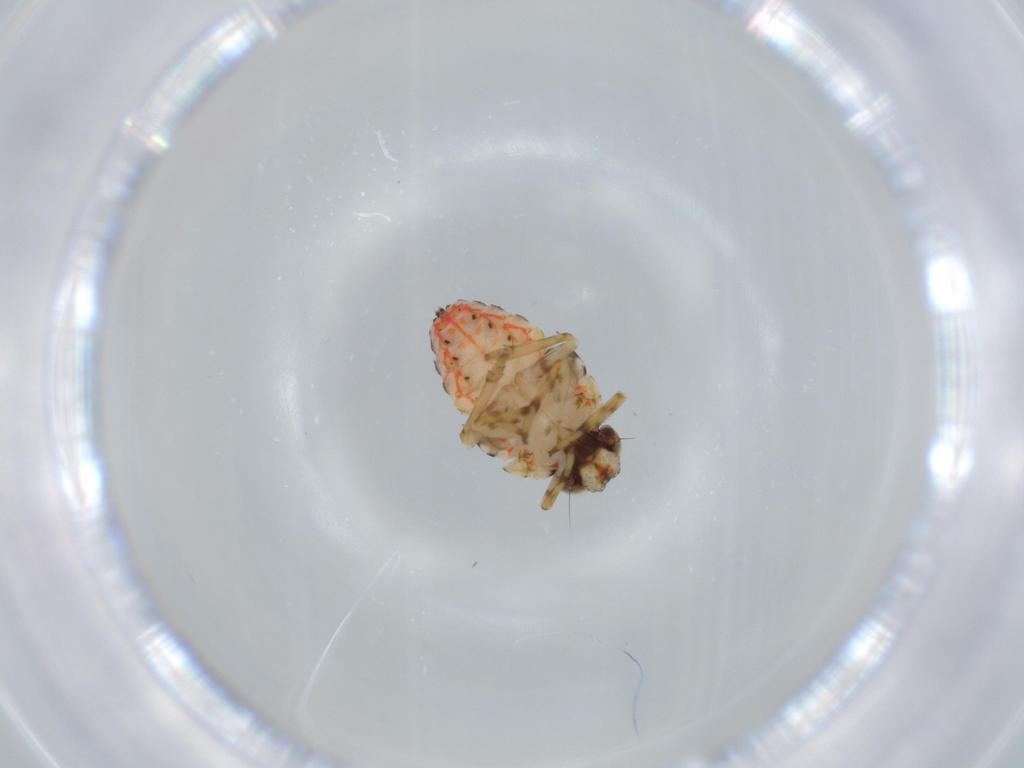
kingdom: Animalia
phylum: Arthropoda
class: Insecta
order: Hemiptera
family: Issidae
